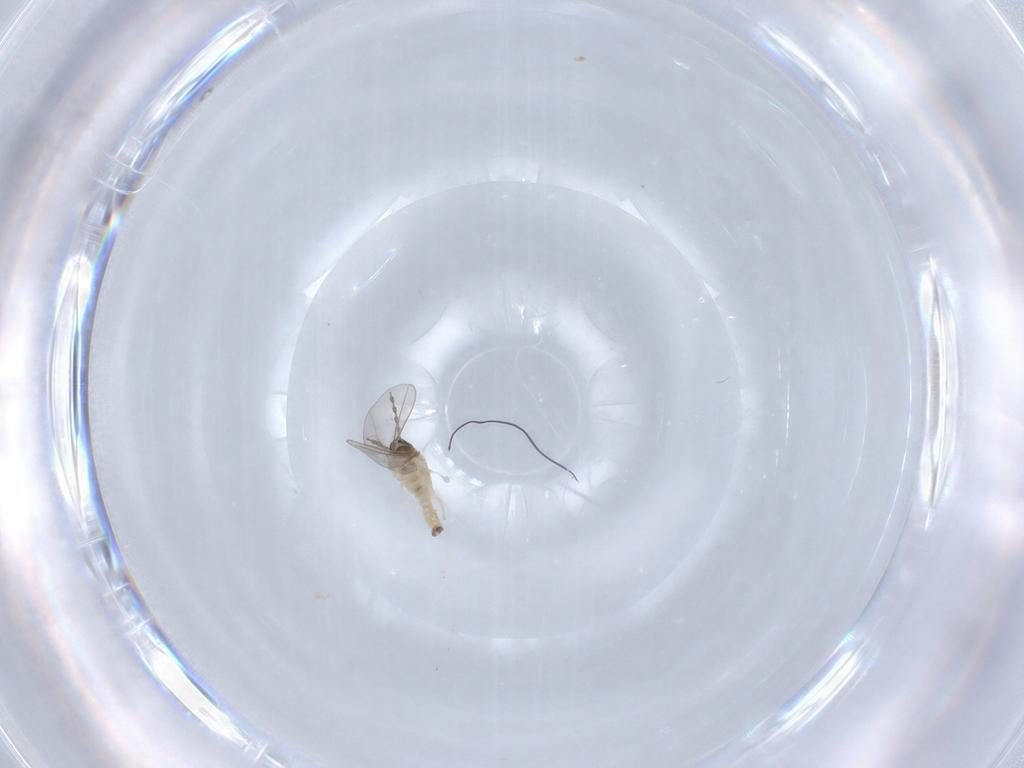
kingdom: Animalia
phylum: Arthropoda
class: Insecta
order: Diptera
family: Cecidomyiidae
